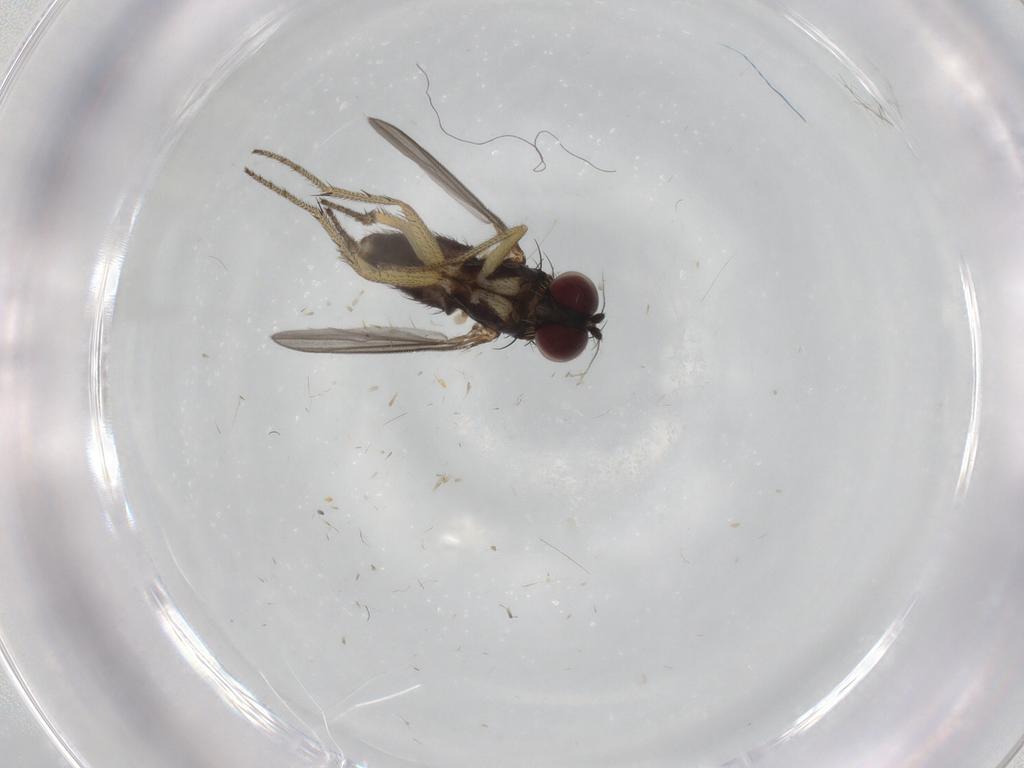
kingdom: Animalia
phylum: Arthropoda
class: Insecta
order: Diptera
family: Dolichopodidae
